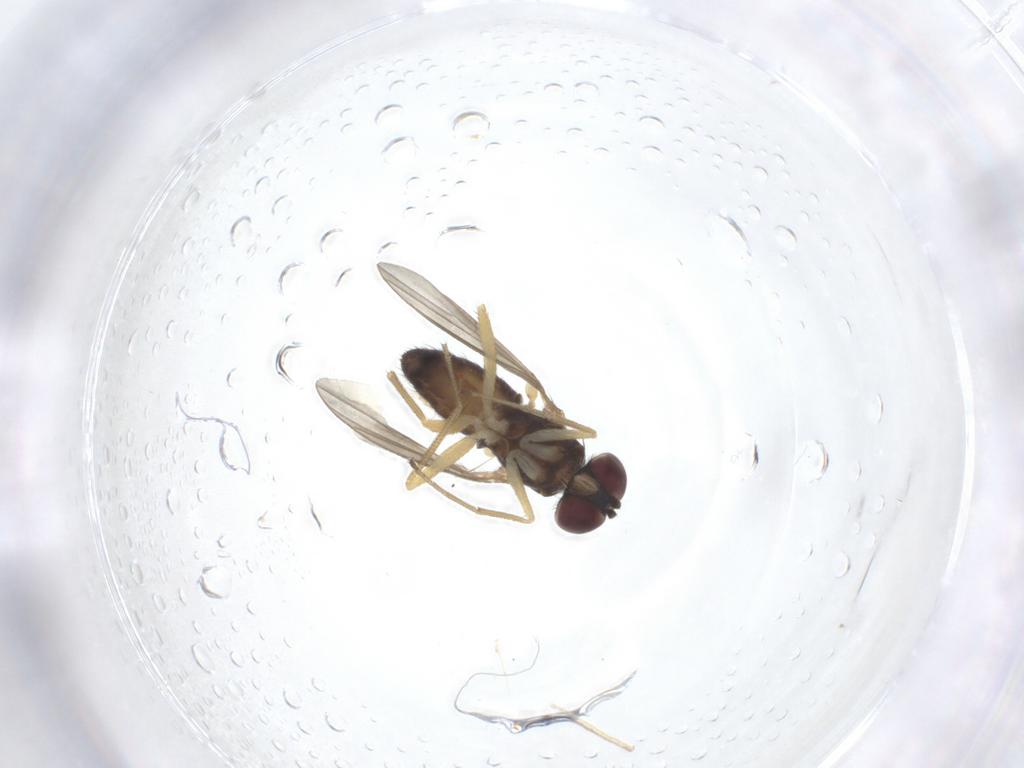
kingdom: Animalia
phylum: Arthropoda
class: Insecta
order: Diptera
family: Dolichopodidae
